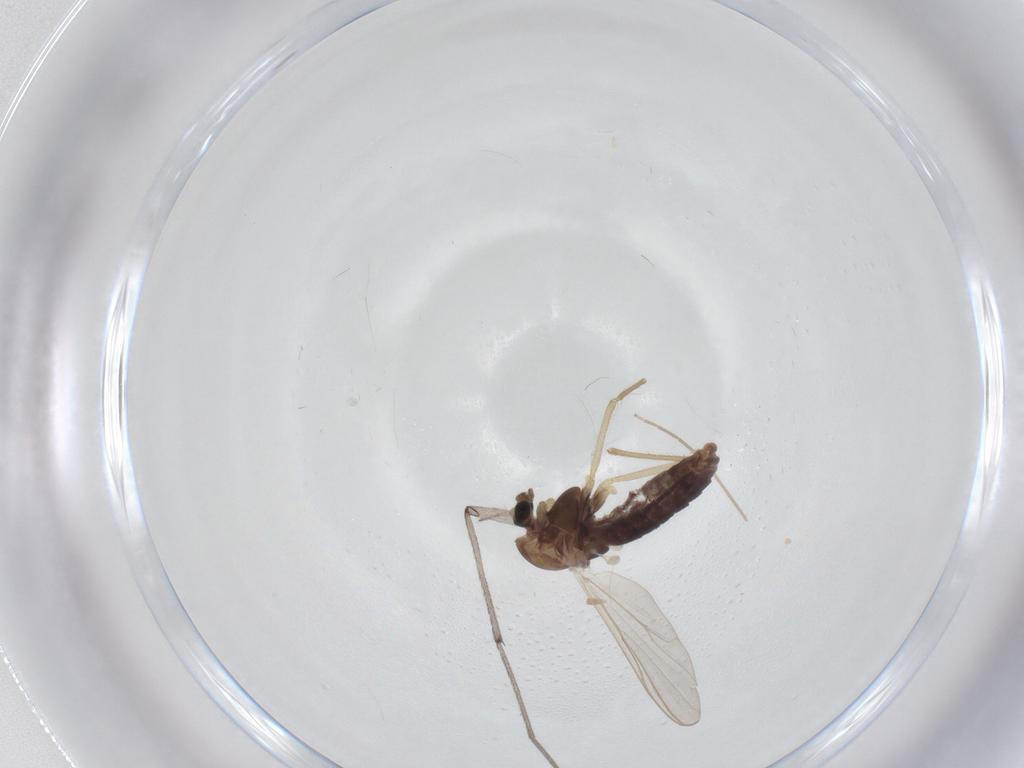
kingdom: Animalia
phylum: Arthropoda
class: Insecta
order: Diptera
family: Chironomidae
